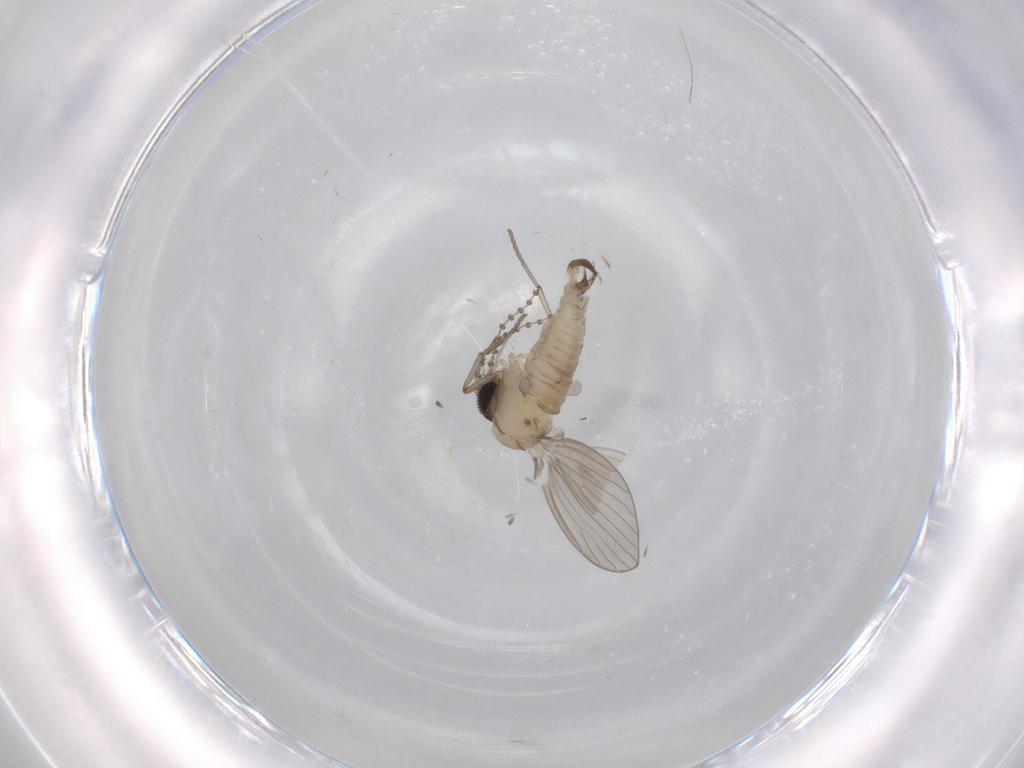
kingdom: Animalia
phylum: Arthropoda
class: Insecta
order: Diptera
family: Psychodidae
